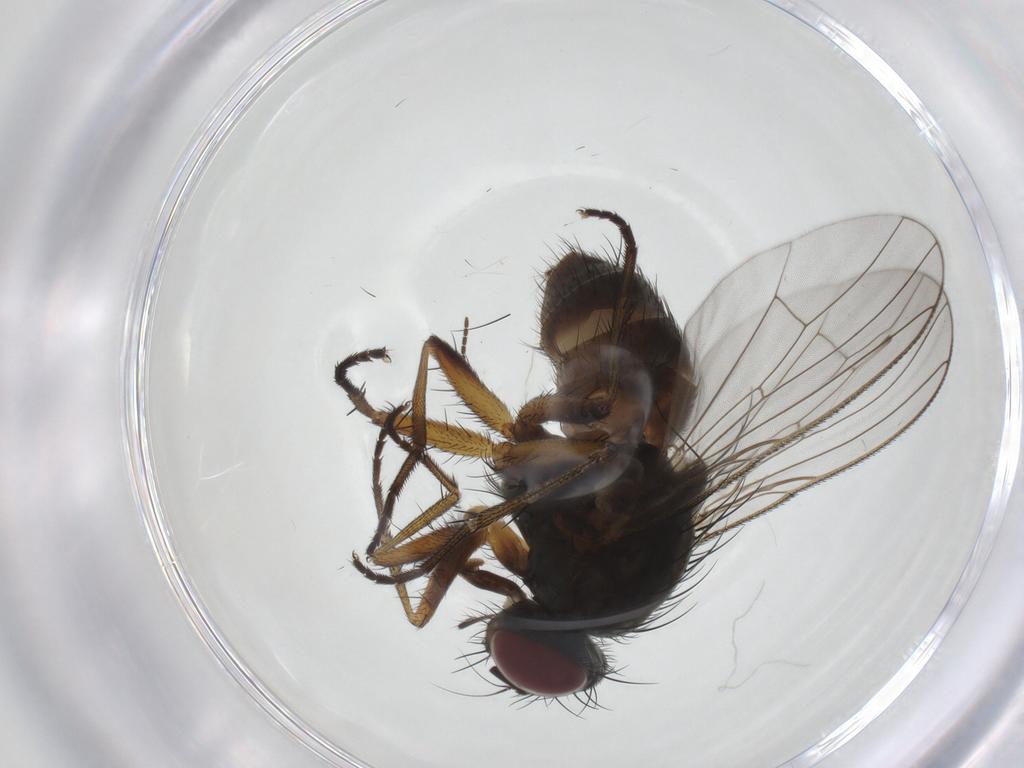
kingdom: Animalia
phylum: Arthropoda
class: Insecta
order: Diptera
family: Muscidae
